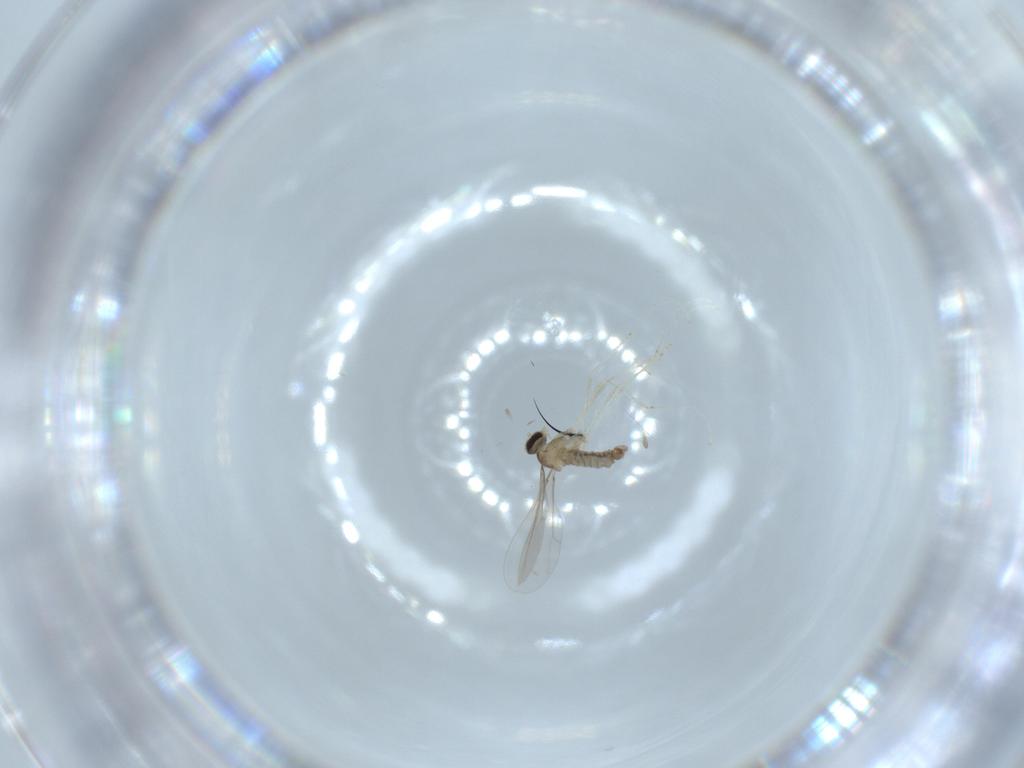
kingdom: Animalia
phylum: Arthropoda
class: Insecta
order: Diptera
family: Cecidomyiidae
